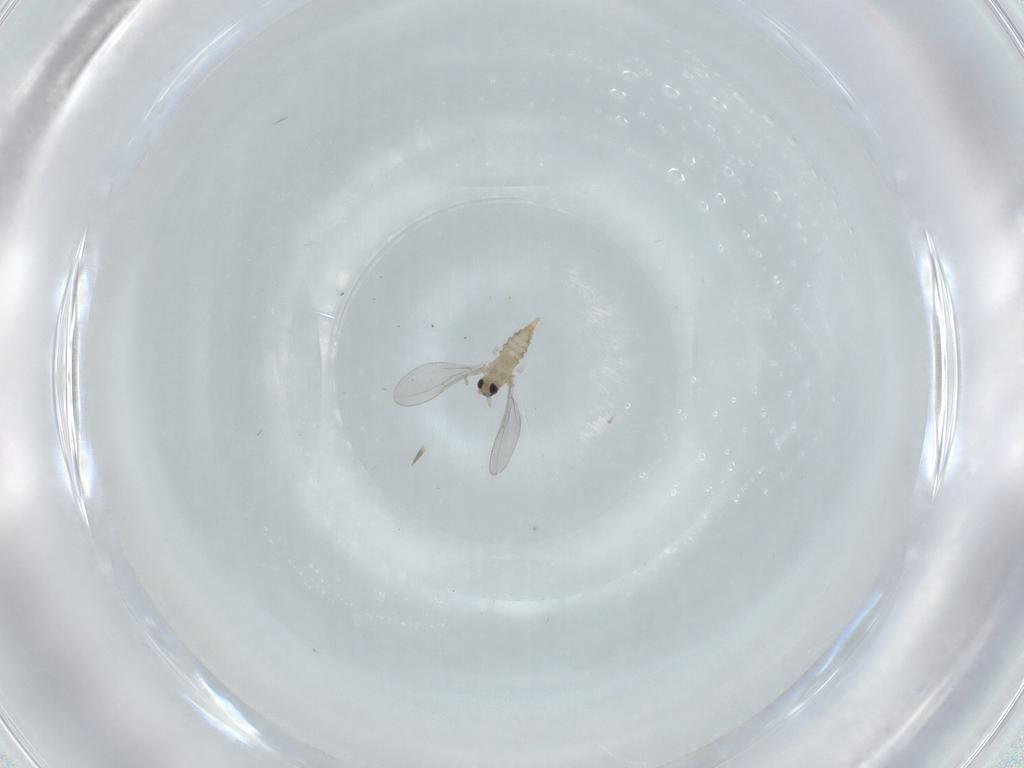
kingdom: Animalia
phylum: Arthropoda
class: Insecta
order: Diptera
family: Cecidomyiidae
